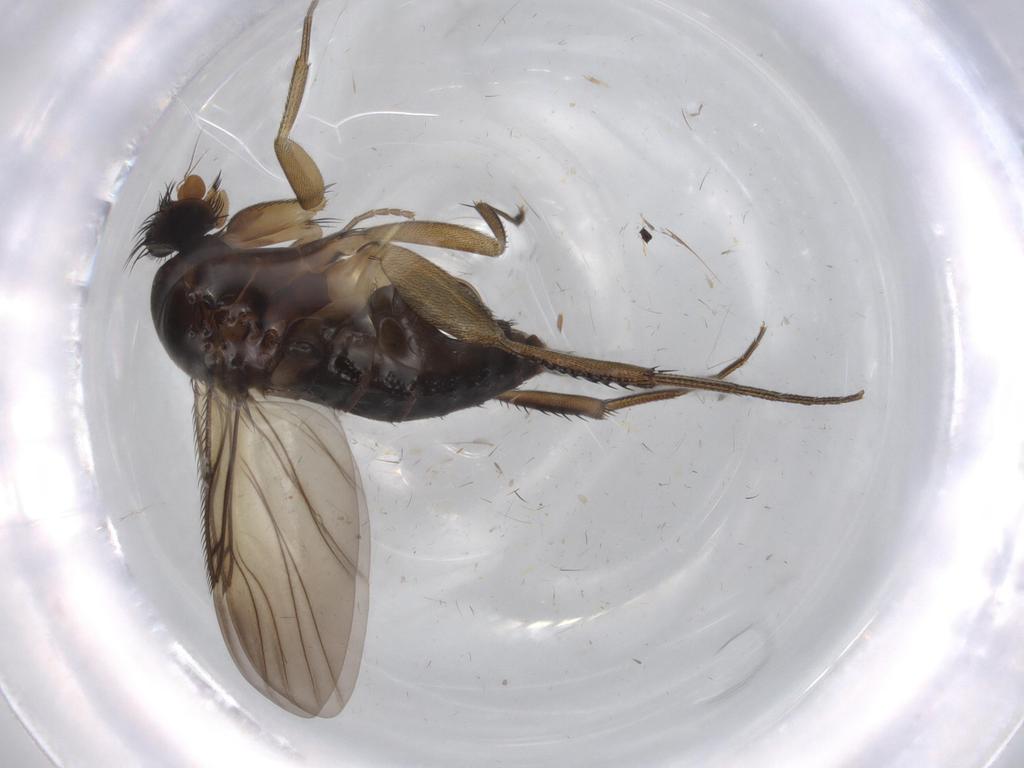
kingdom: Animalia
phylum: Arthropoda
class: Insecta
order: Diptera
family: Phoridae
